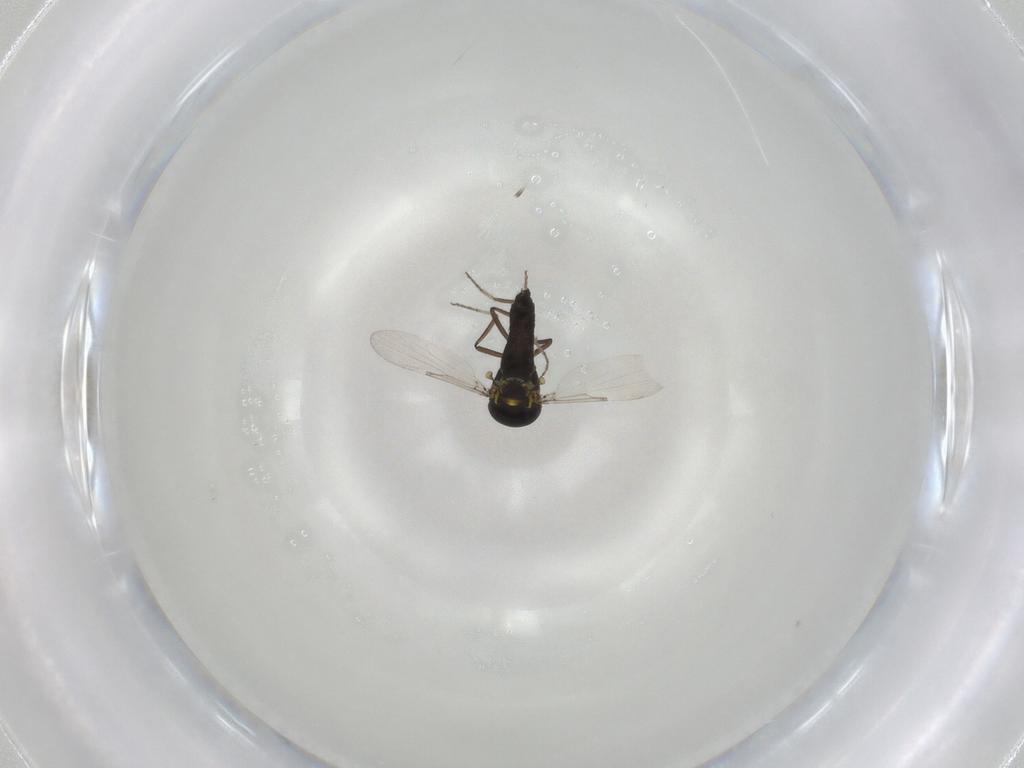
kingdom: Animalia
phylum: Arthropoda
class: Insecta
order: Diptera
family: Ceratopogonidae
